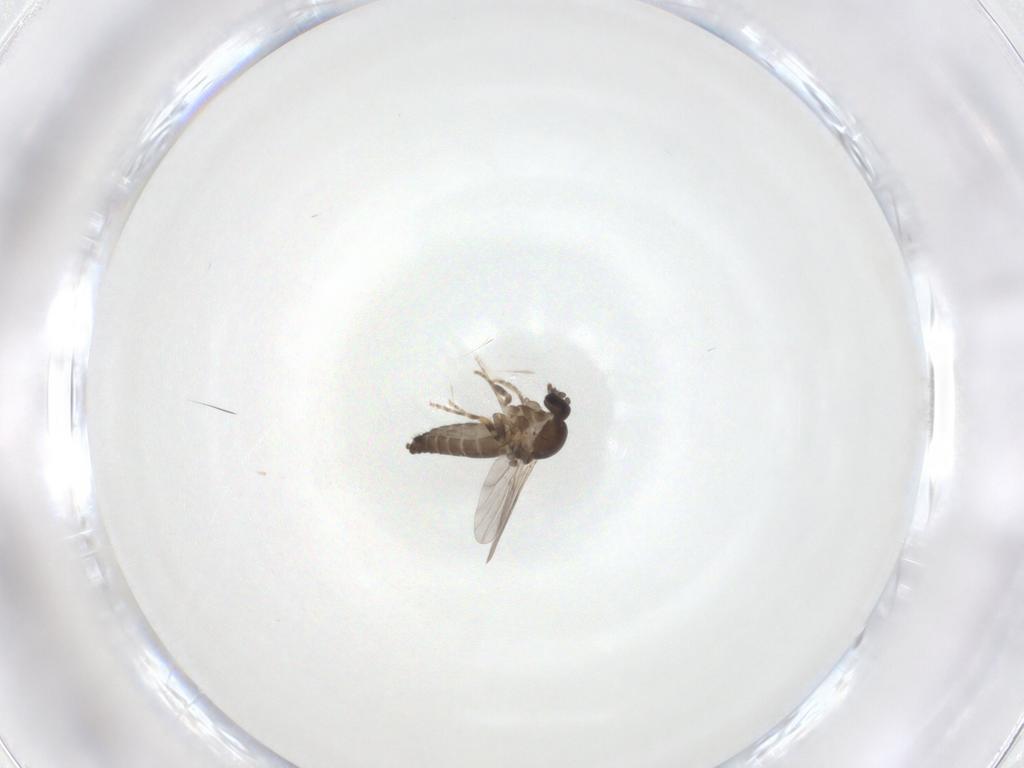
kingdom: Animalia
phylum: Arthropoda
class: Insecta
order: Diptera
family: Ceratopogonidae
